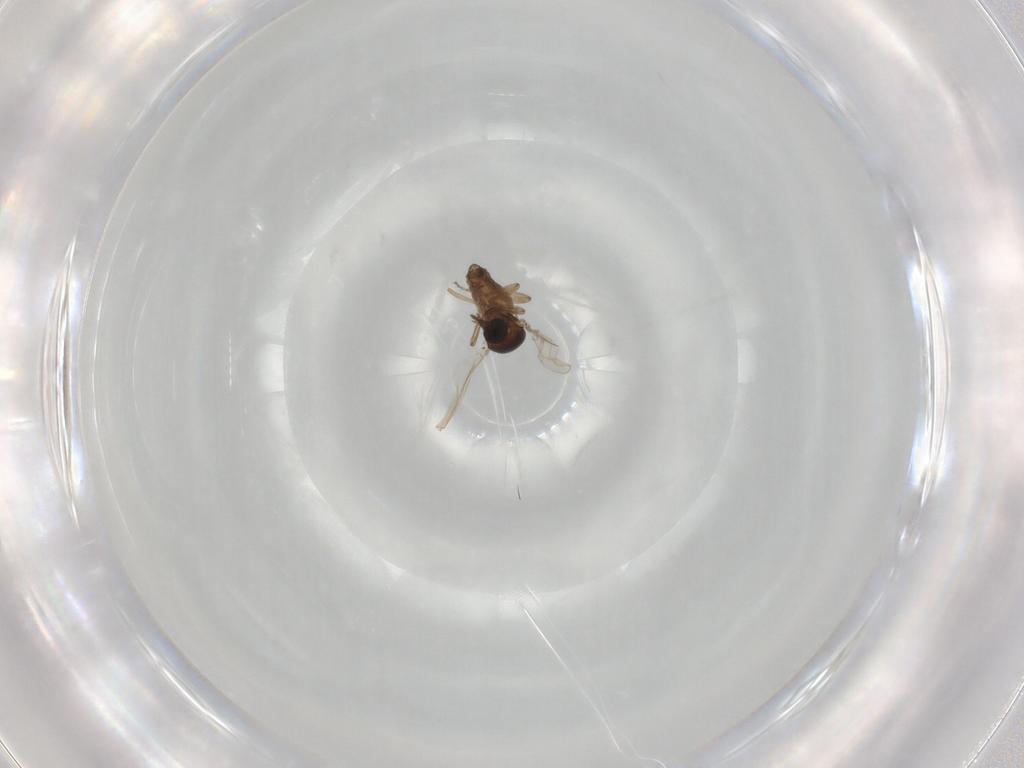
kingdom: Animalia
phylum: Arthropoda
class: Insecta
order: Diptera
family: Ceratopogonidae
